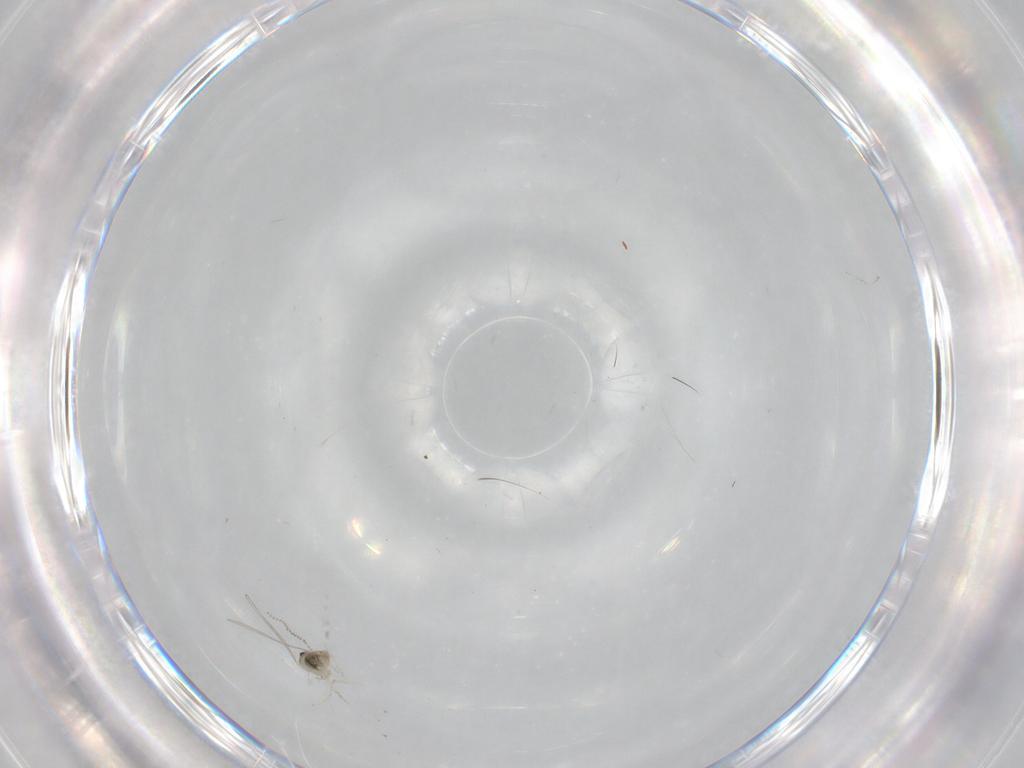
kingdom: Animalia
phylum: Arthropoda
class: Insecta
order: Diptera
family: Cecidomyiidae
